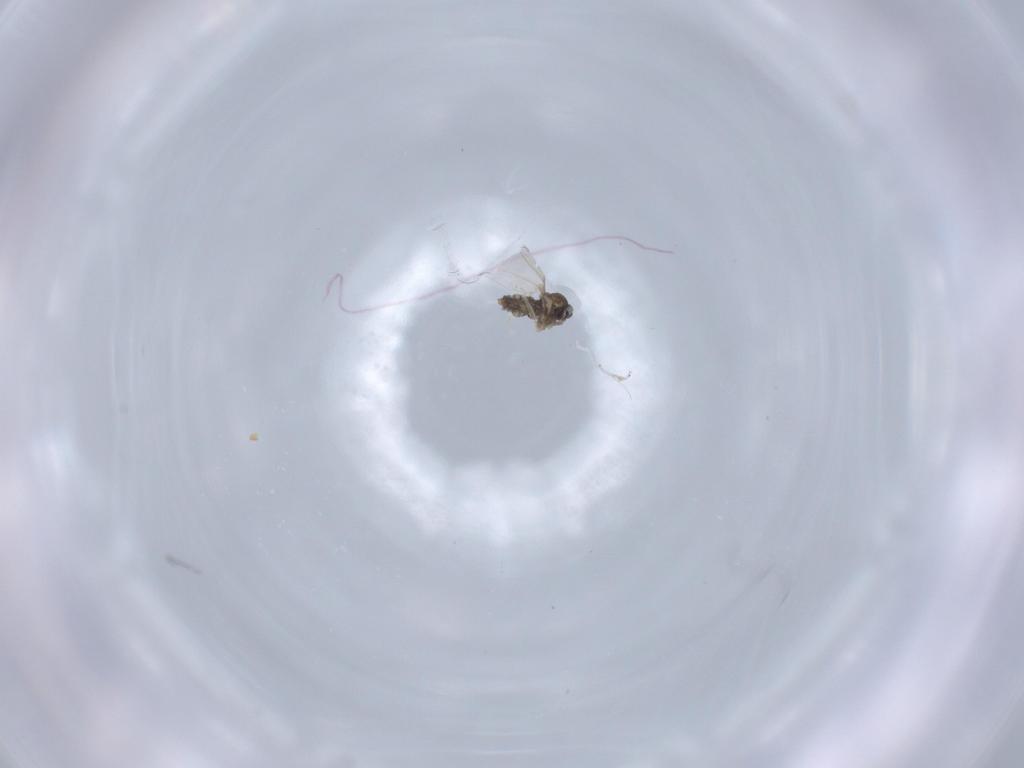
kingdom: Animalia
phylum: Arthropoda
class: Insecta
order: Diptera
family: Cecidomyiidae
